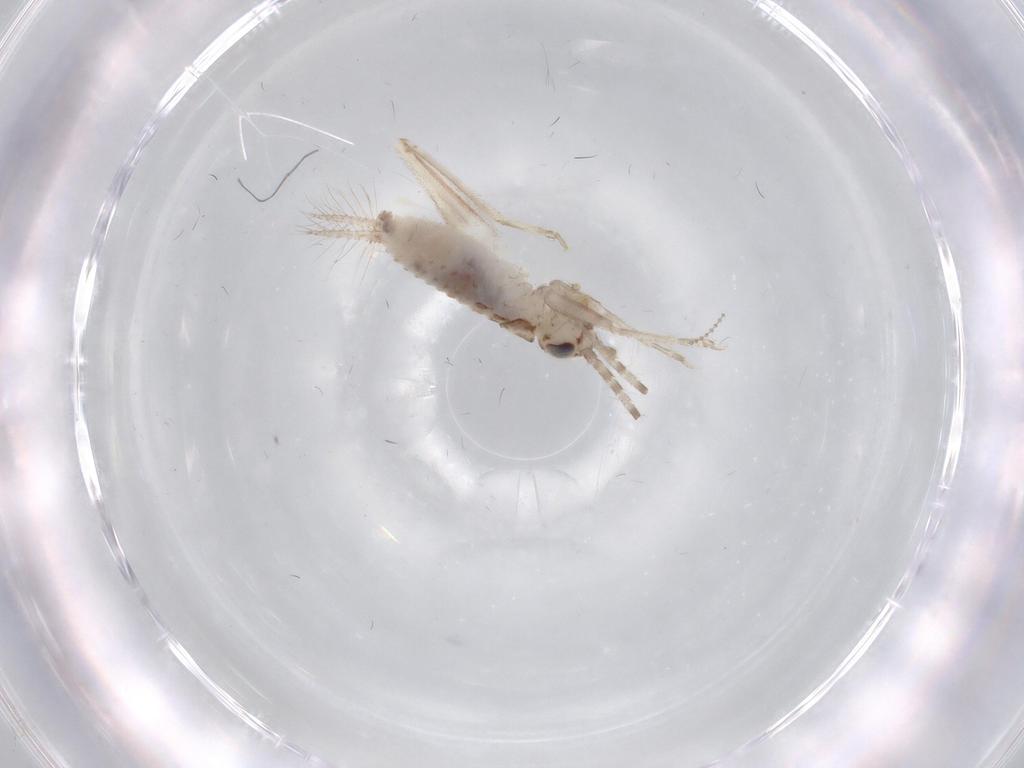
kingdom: Animalia
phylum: Arthropoda
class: Insecta
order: Orthoptera
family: Trigonidiidae
